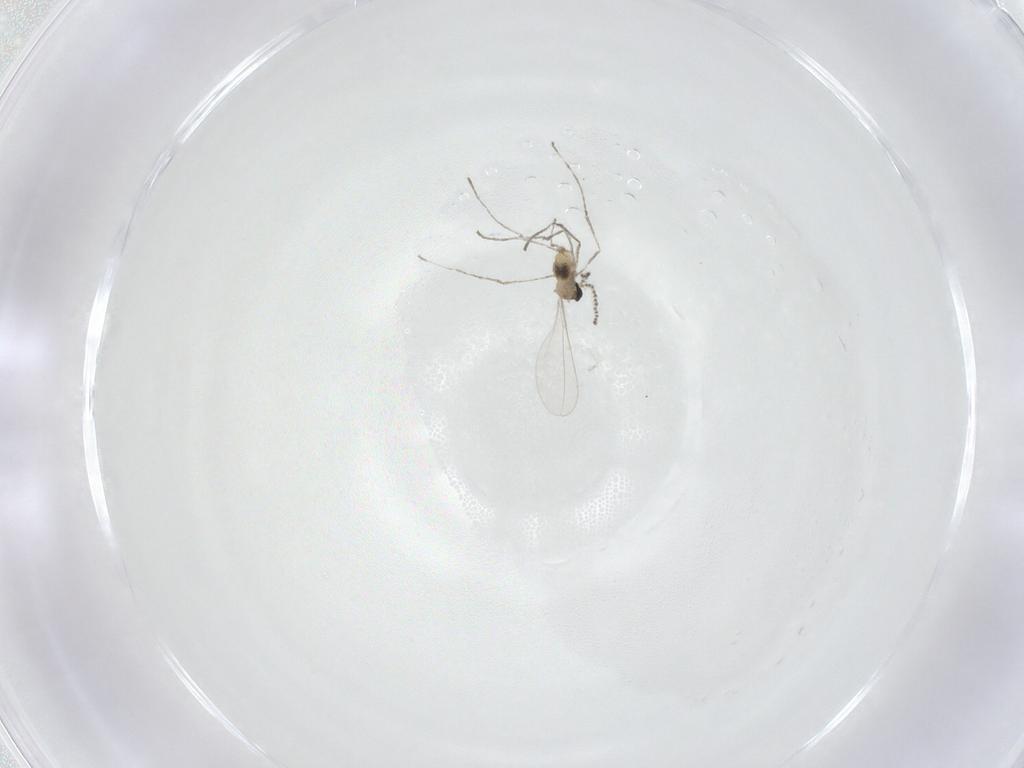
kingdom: Animalia
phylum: Arthropoda
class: Insecta
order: Diptera
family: Cecidomyiidae
